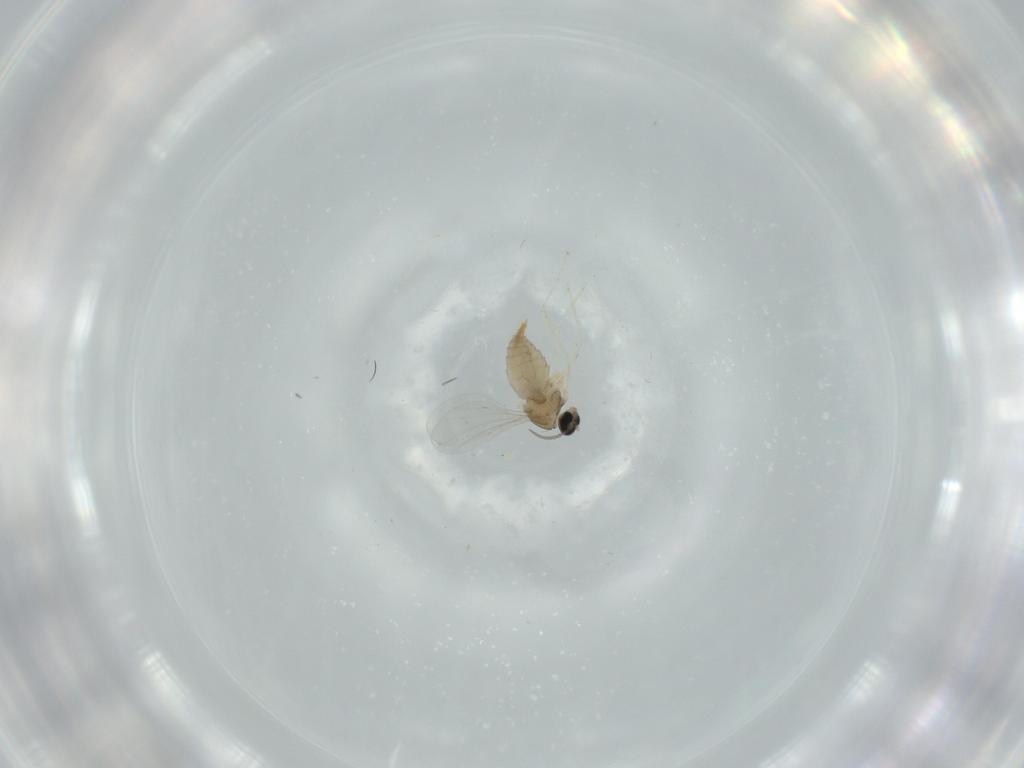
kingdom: Animalia
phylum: Arthropoda
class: Insecta
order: Diptera
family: Cecidomyiidae
